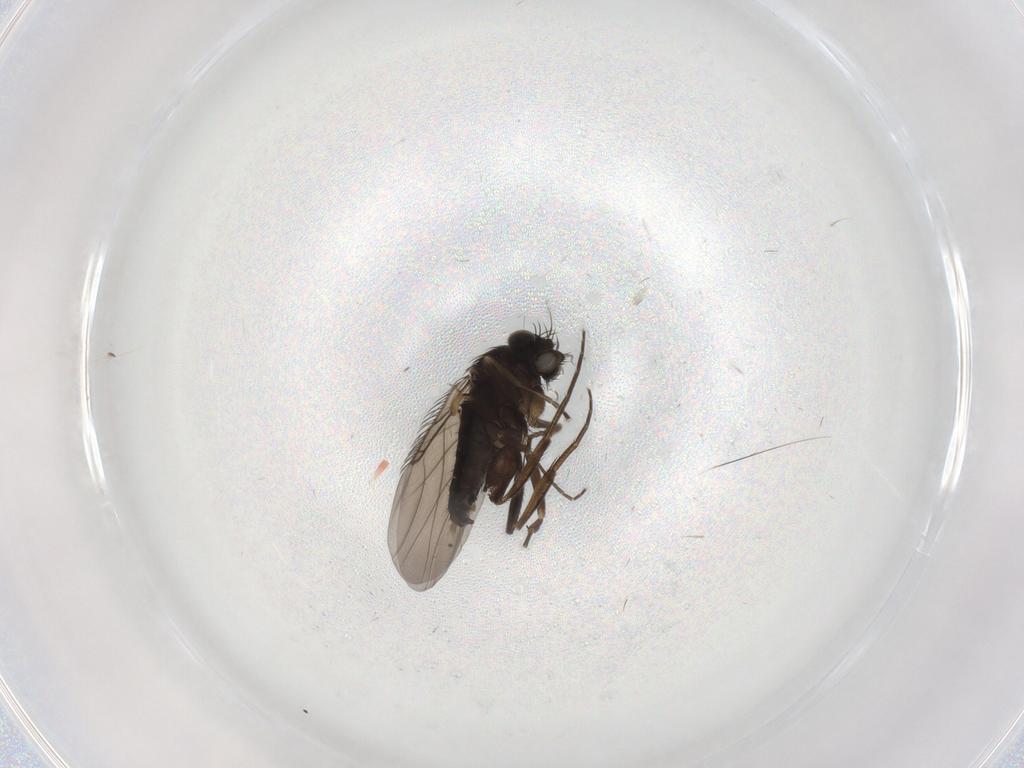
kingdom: Animalia
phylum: Arthropoda
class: Insecta
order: Diptera
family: Phoridae
